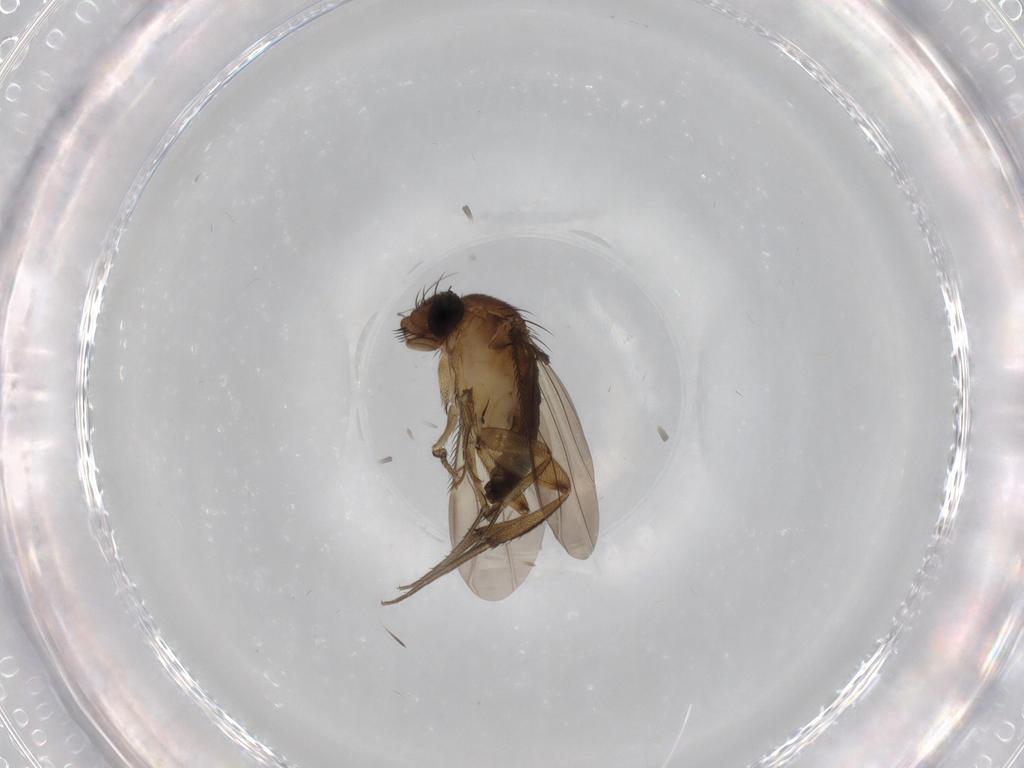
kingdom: Animalia
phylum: Arthropoda
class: Insecta
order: Diptera
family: Phoridae
